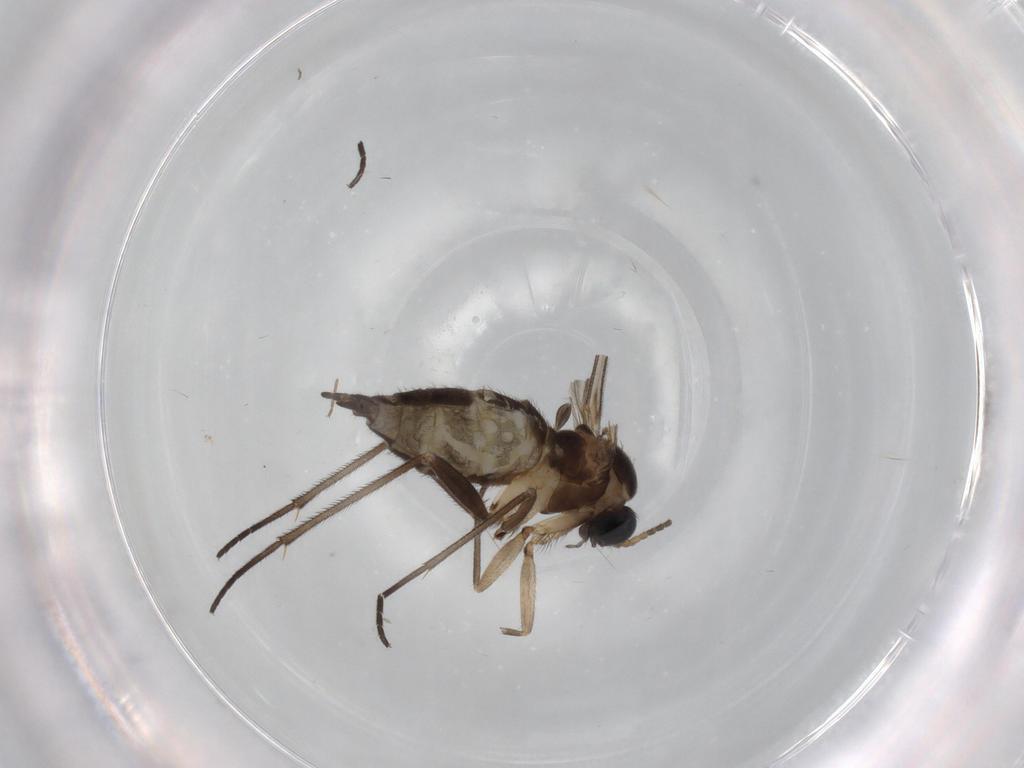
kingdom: Animalia
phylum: Arthropoda
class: Insecta
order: Diptera
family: Sciaridae
